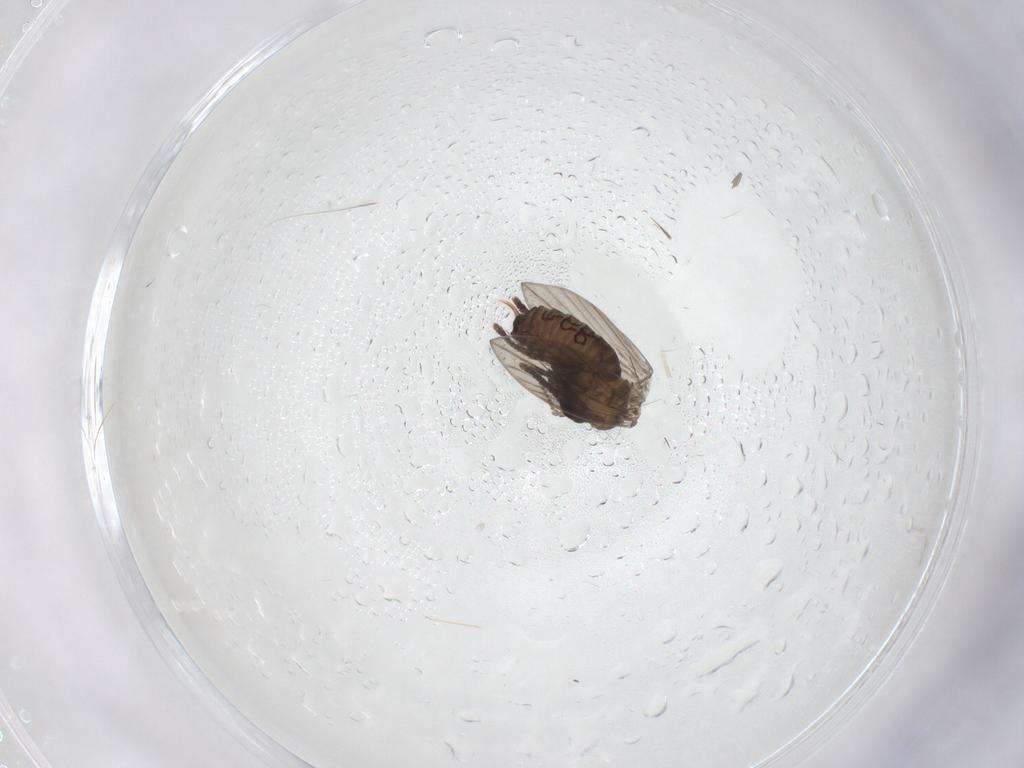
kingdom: Animalia
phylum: Arthropoda
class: Insecta
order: Diptera
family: Psychodidae
